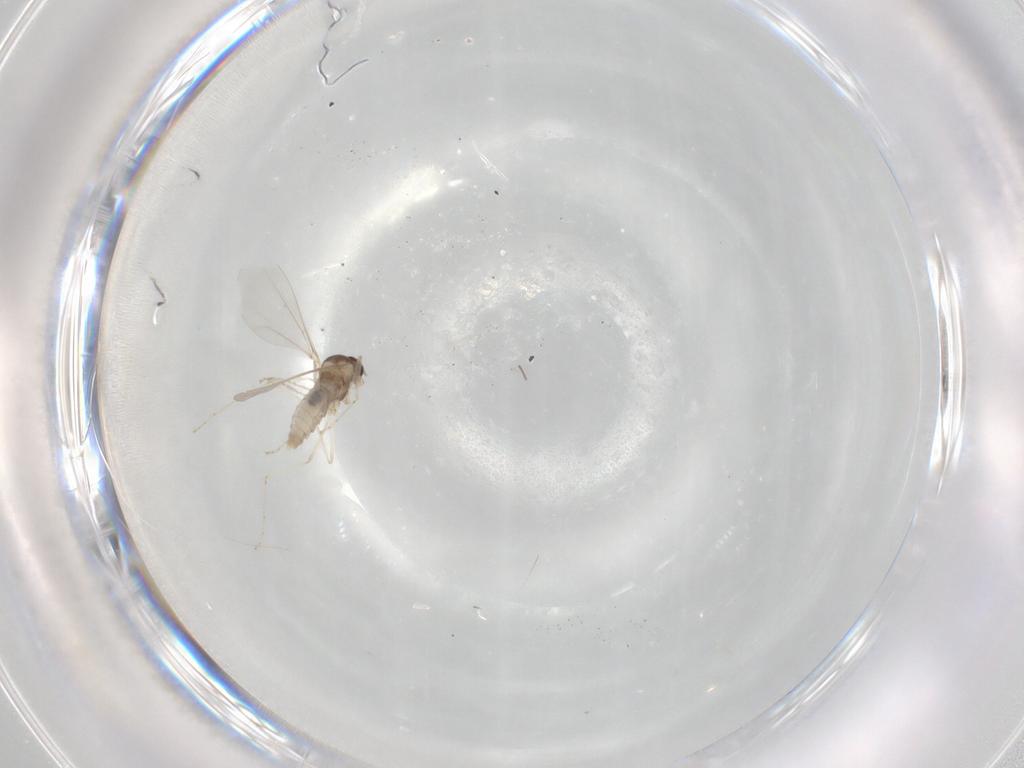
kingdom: Animalia
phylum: Arthropoda
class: Insecta
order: Diptera
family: Cecidomyiidae
